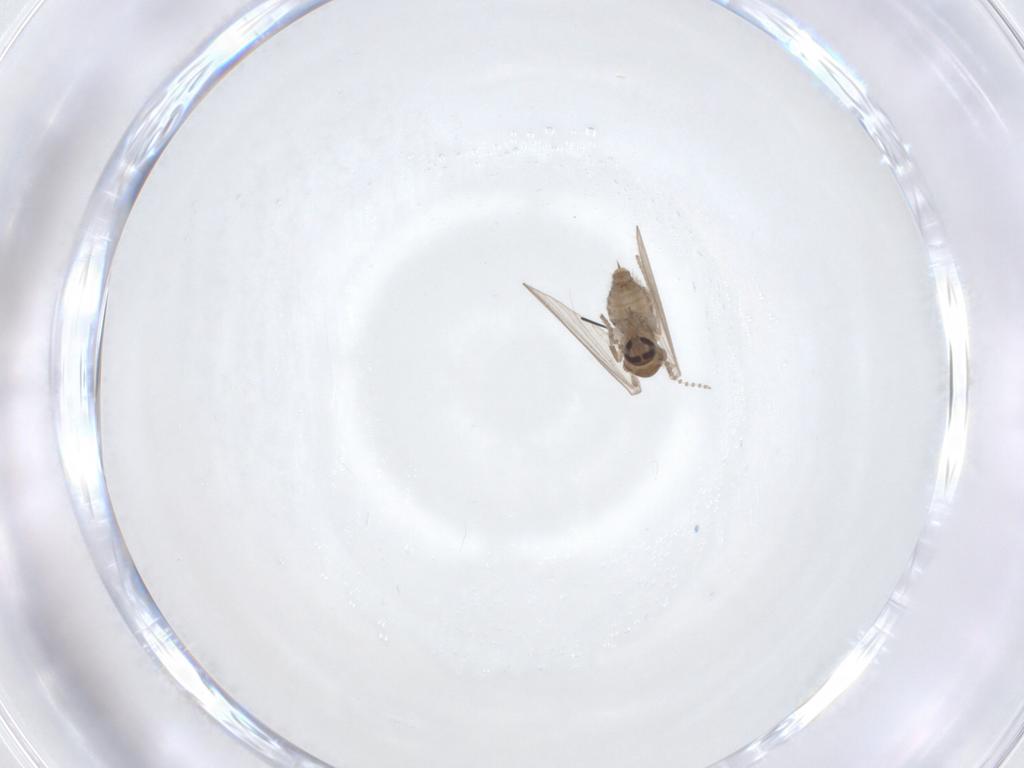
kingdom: Animalia
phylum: Arthropoda
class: Insecta
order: Diptera
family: Psychodidae
